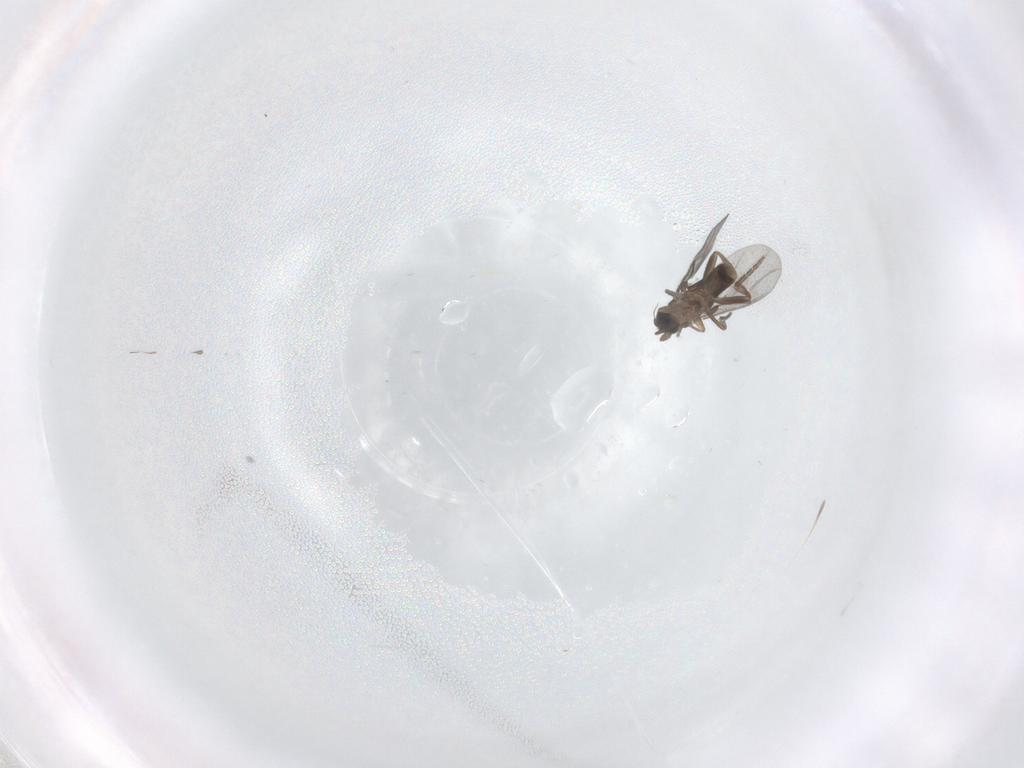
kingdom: Animalia
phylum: Arthropoda
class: Insecta
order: Diptera
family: Phoridae
